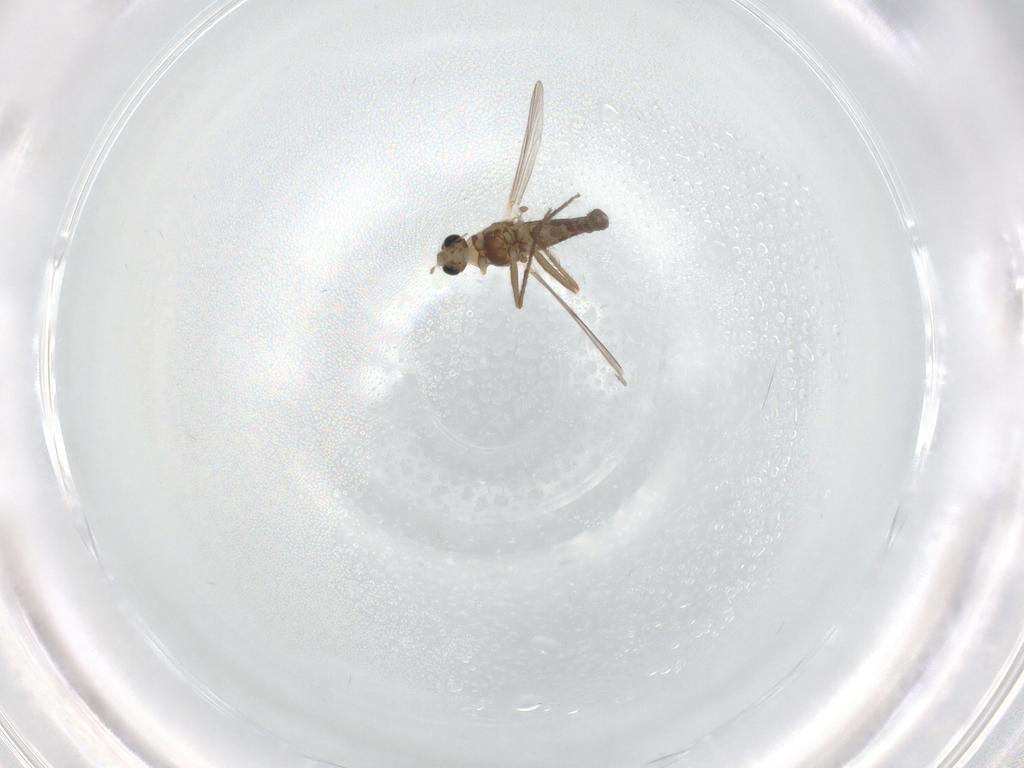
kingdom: Animalia
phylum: Arthropoda
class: Insecta
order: Diptera
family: Chironomidae
